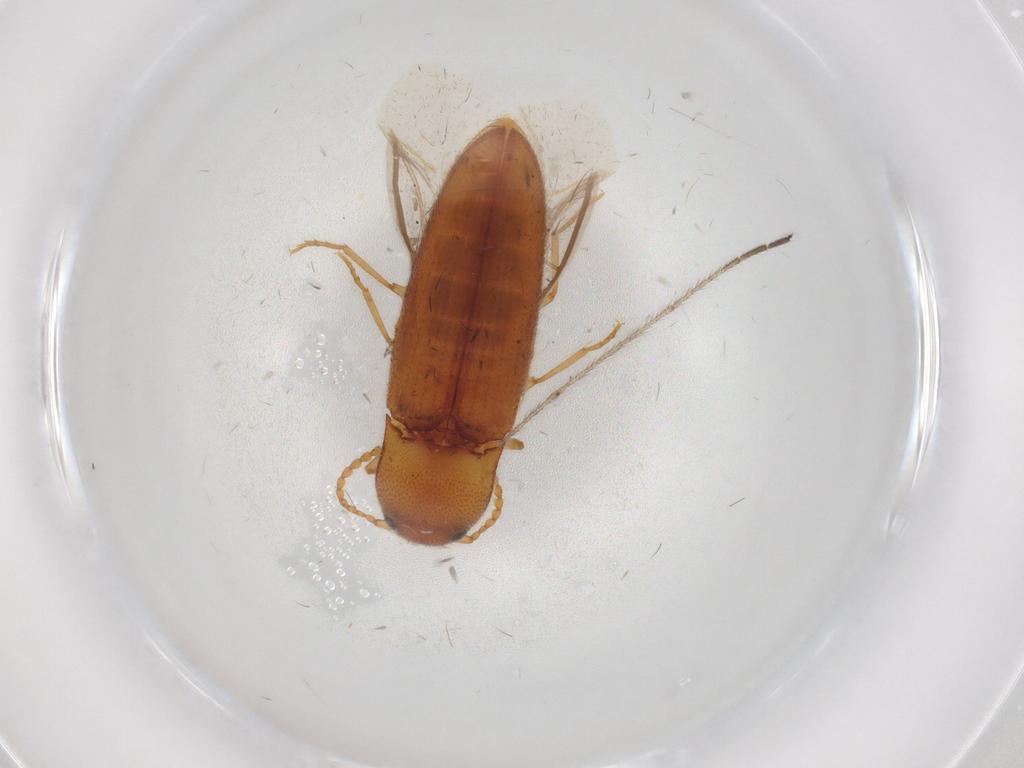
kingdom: Animalia
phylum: Arthropoda
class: Insecta
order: Coleoptera
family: Elateridae
